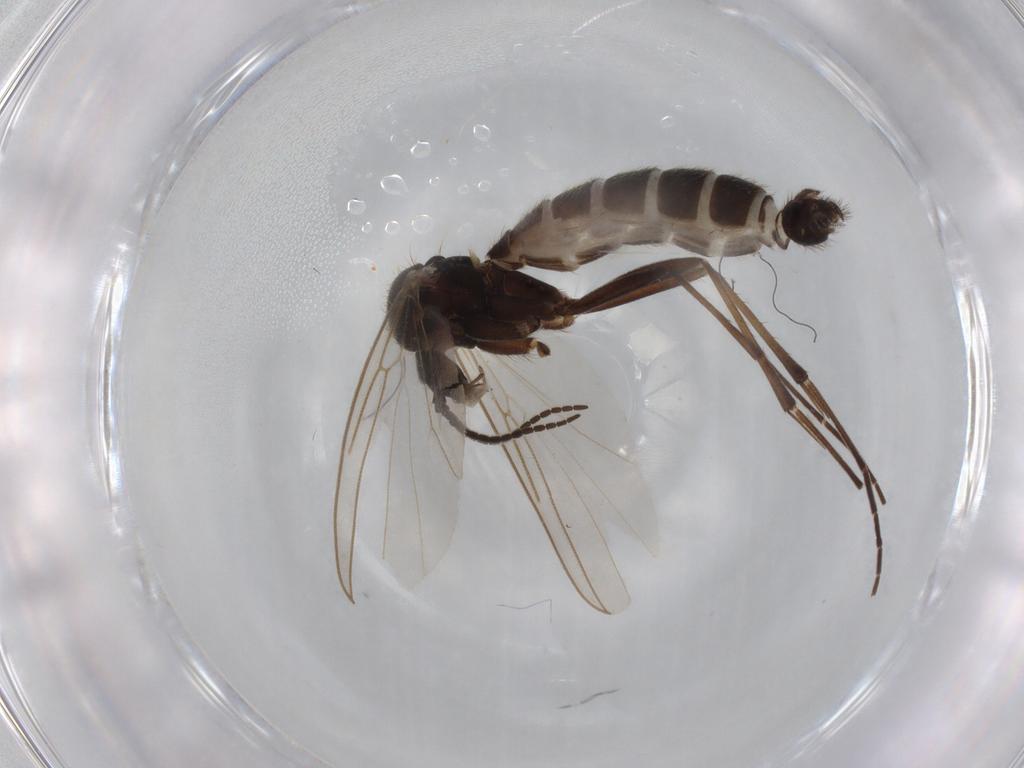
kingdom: Animalia
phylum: Arthropoda
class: Insecta
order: Diptera
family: Mycetophilidae
